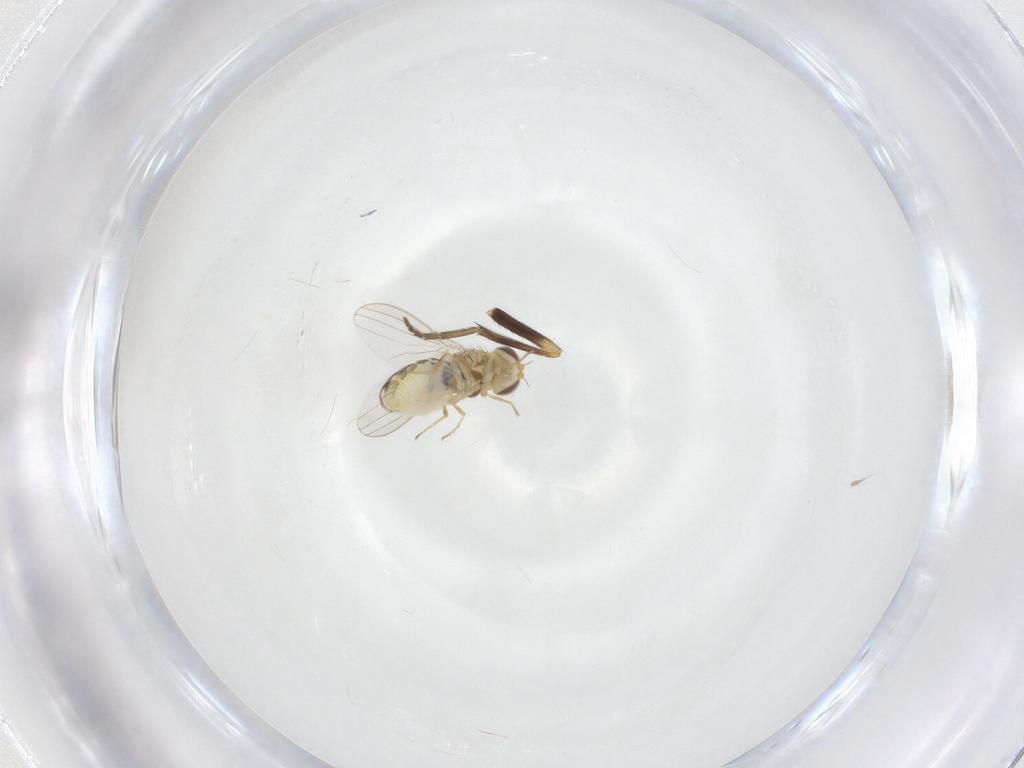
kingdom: Animalia
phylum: Arthropoda
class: Insecta
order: Diptera
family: Chyromyidae
